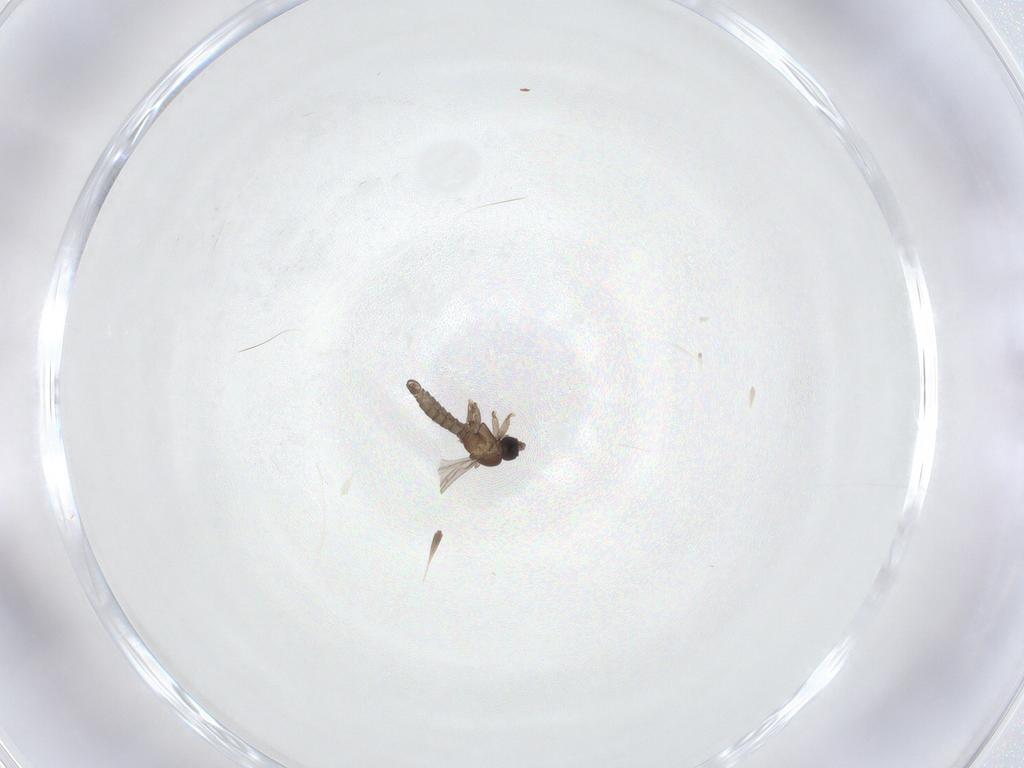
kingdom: Animalia
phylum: Arthropoda
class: Insecta
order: Diptera
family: Sciaridae
